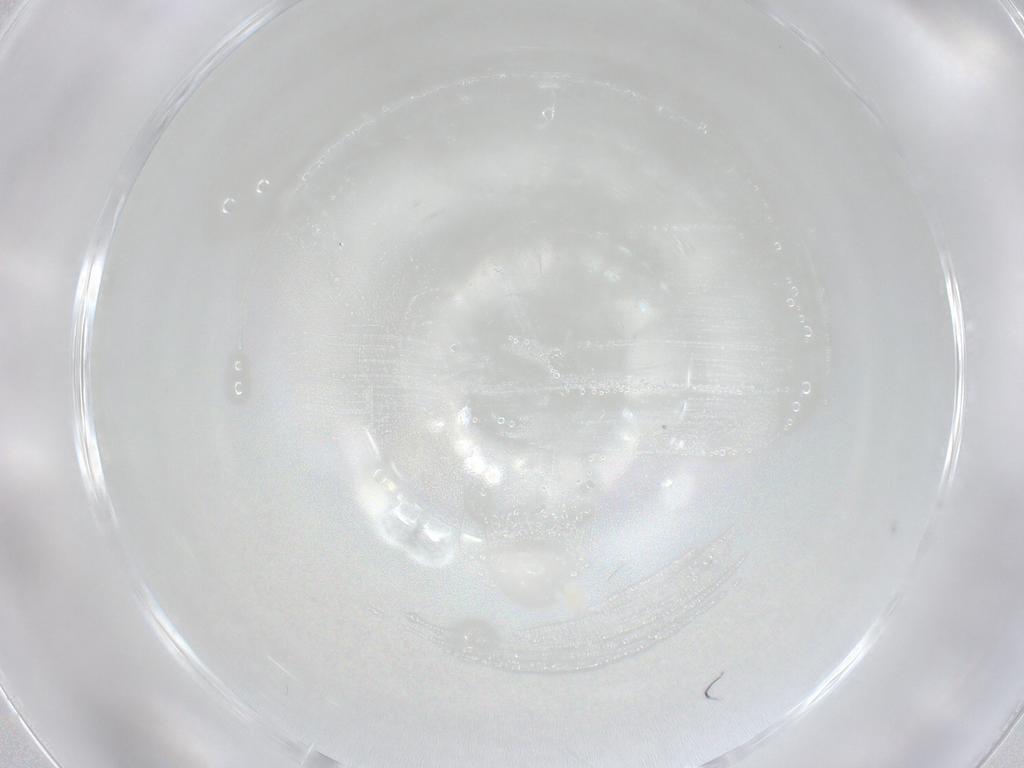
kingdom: Animalia
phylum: Arthropoda
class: Arachnida
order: Trombidiformes
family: Eupodidae
